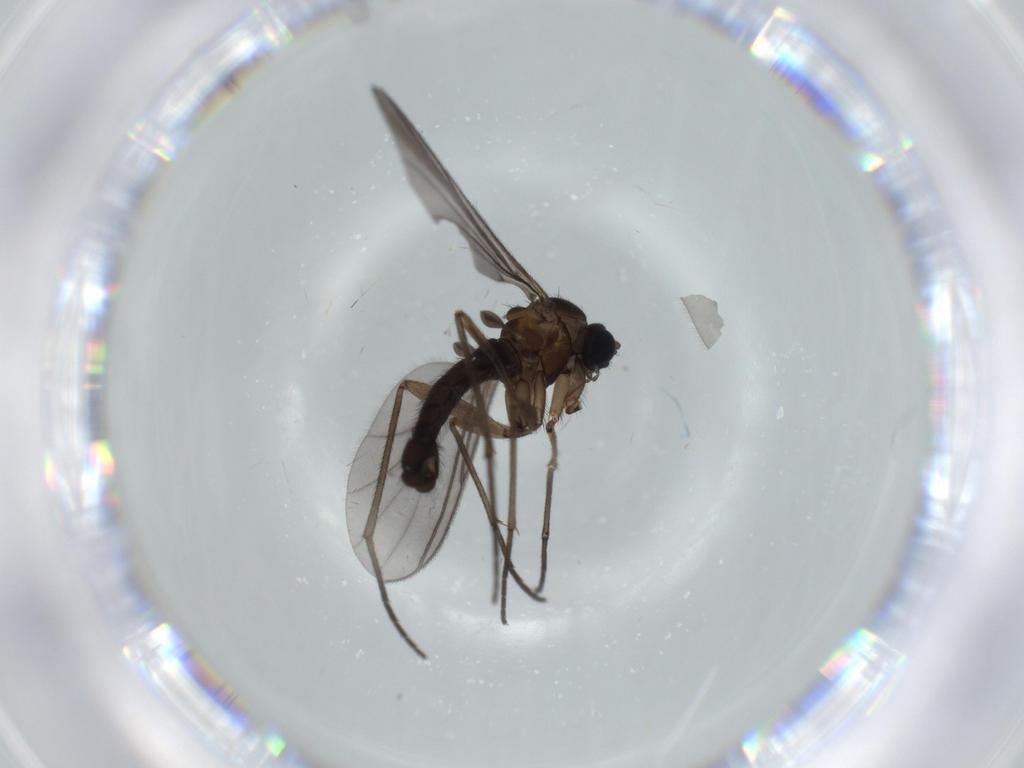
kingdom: Animalia
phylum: Arthropoda
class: Insecta
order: Diptera
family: Sciaridae
